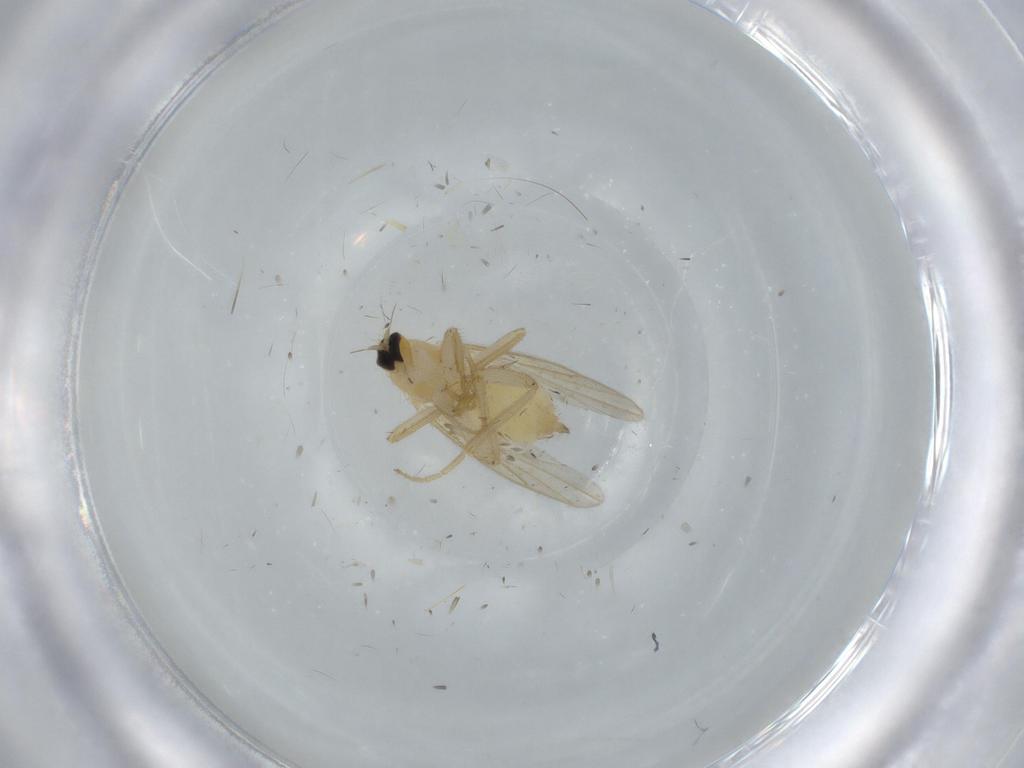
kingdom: Animalia
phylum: Arthropoda
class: Insecta
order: Diptera
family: Hybotidae
